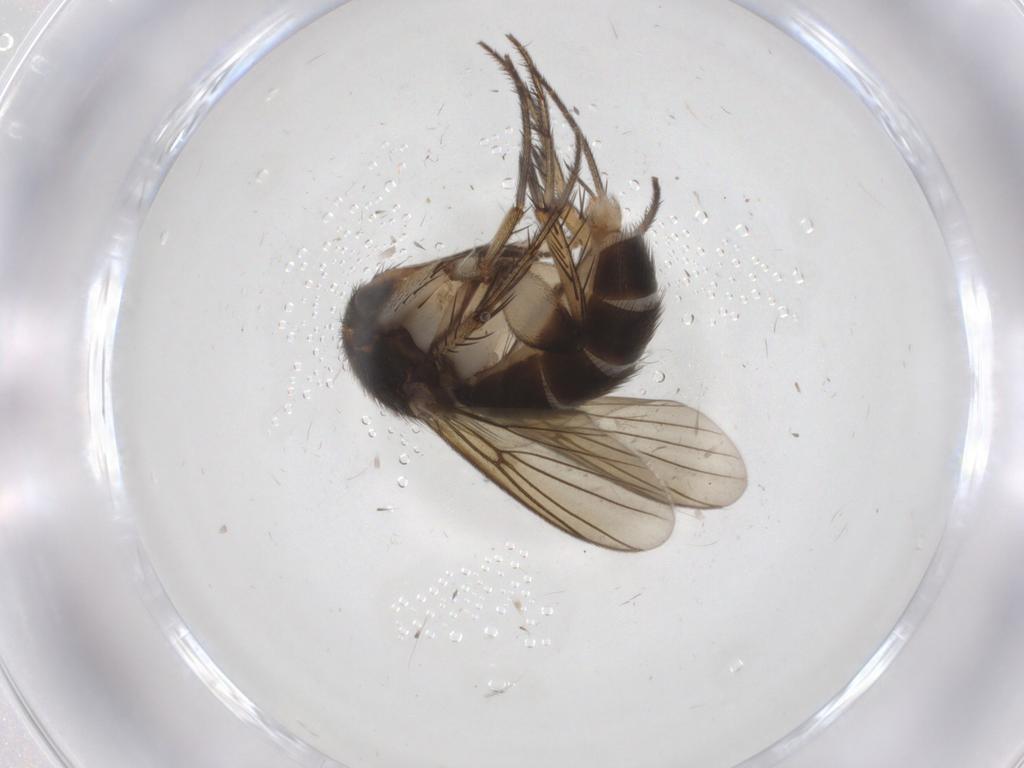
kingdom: Animalia
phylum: Arthropoda
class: Insecta
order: Diptera
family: Mycetophilidae
